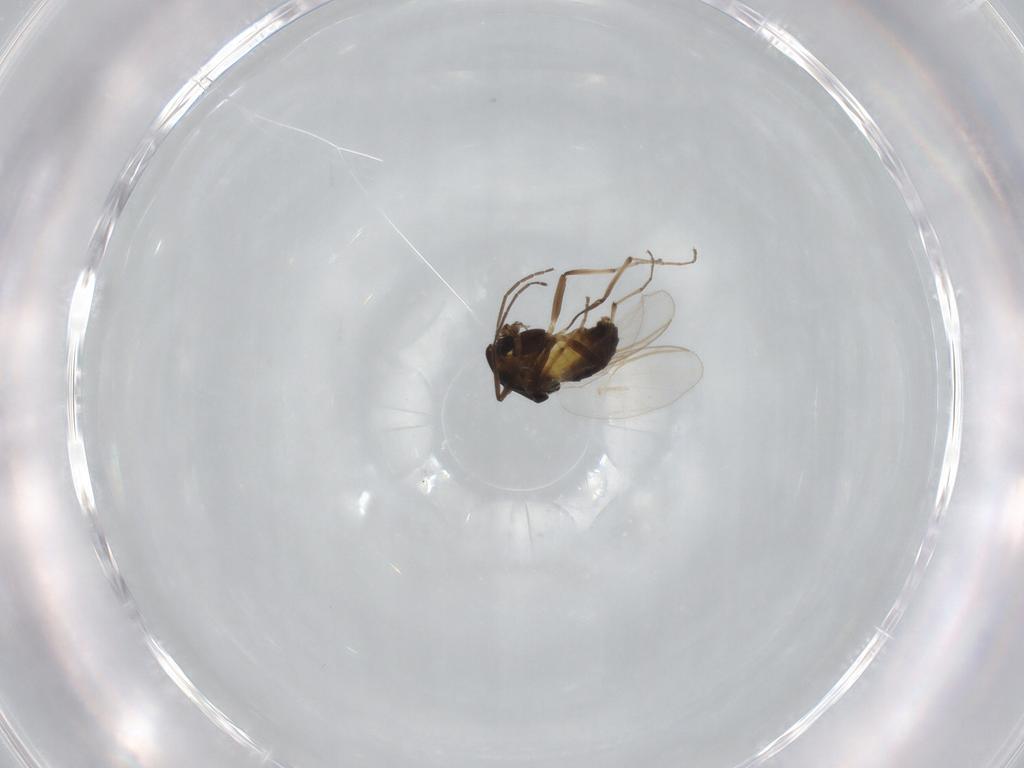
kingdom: Animalia
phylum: Arthropoda
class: Insecta
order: Diptera
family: Chironomidae
